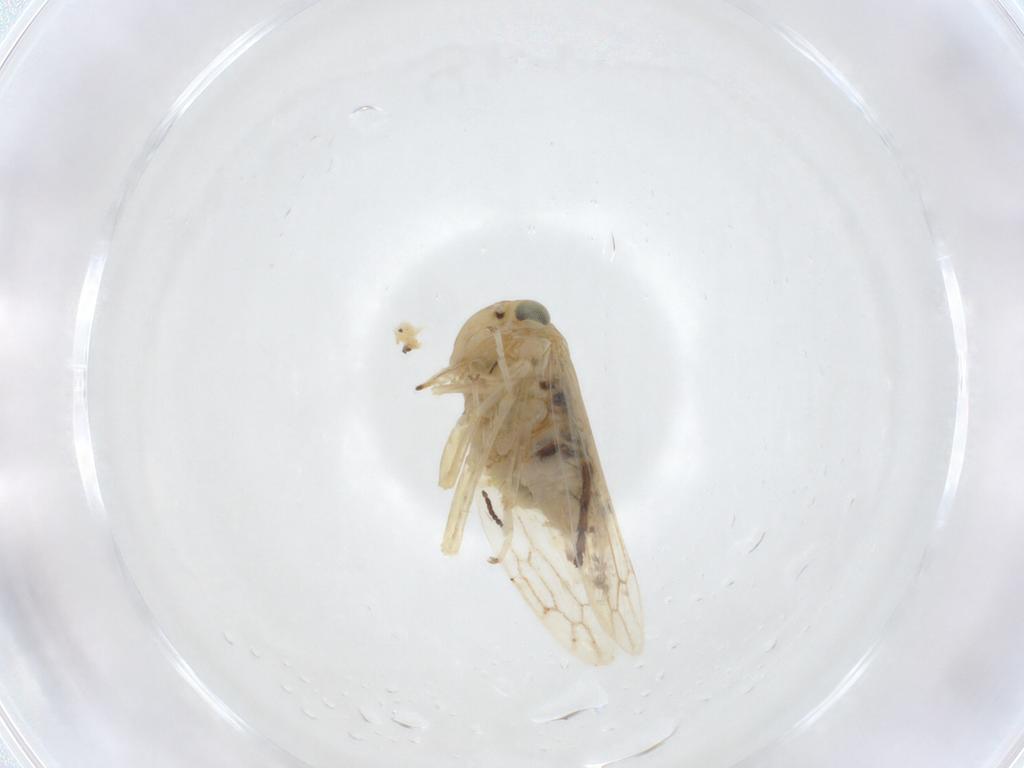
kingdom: Animalia
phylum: Arthropoda
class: Insecta
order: Hemiptera
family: Cicadellidae
